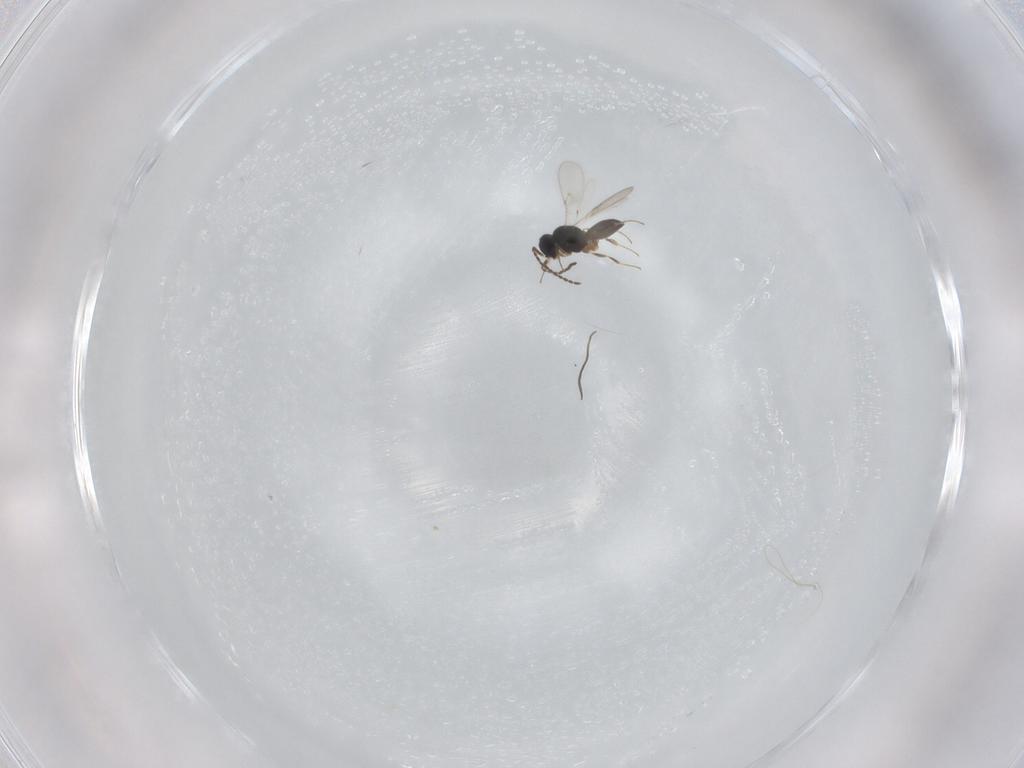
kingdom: Animalia
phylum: Arthropoda
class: Insecta
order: Hymenoptera
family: Scelionidae
